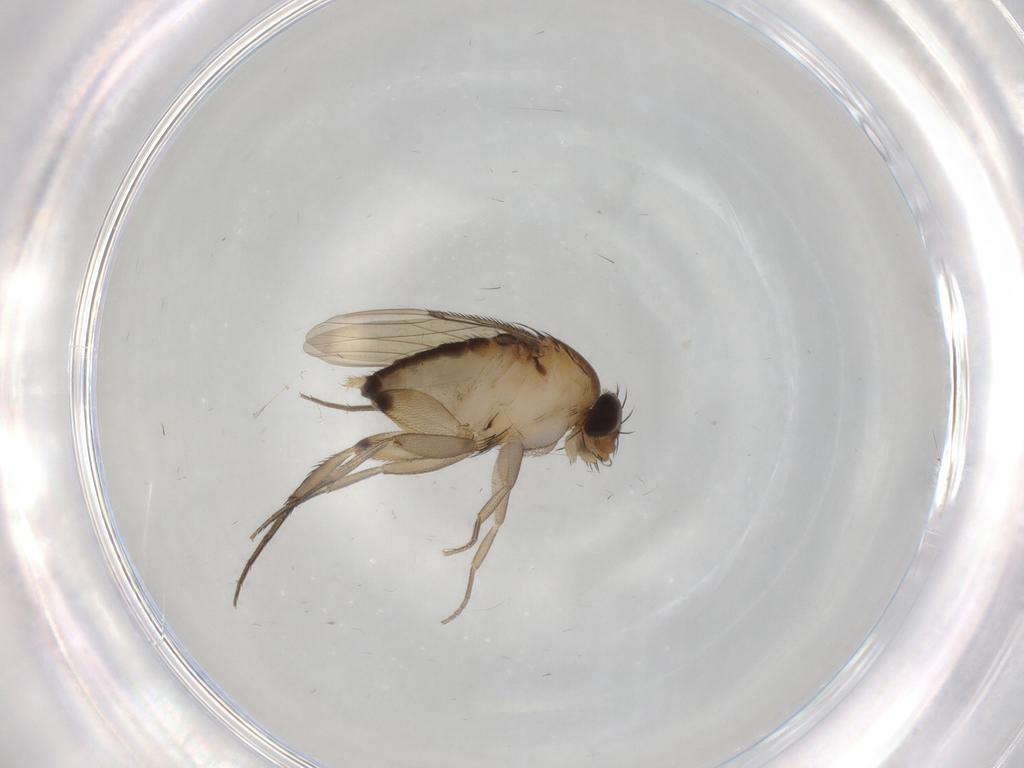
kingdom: Animalia
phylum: Arthropoda
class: Insecta
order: Diptera
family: Phoridae
